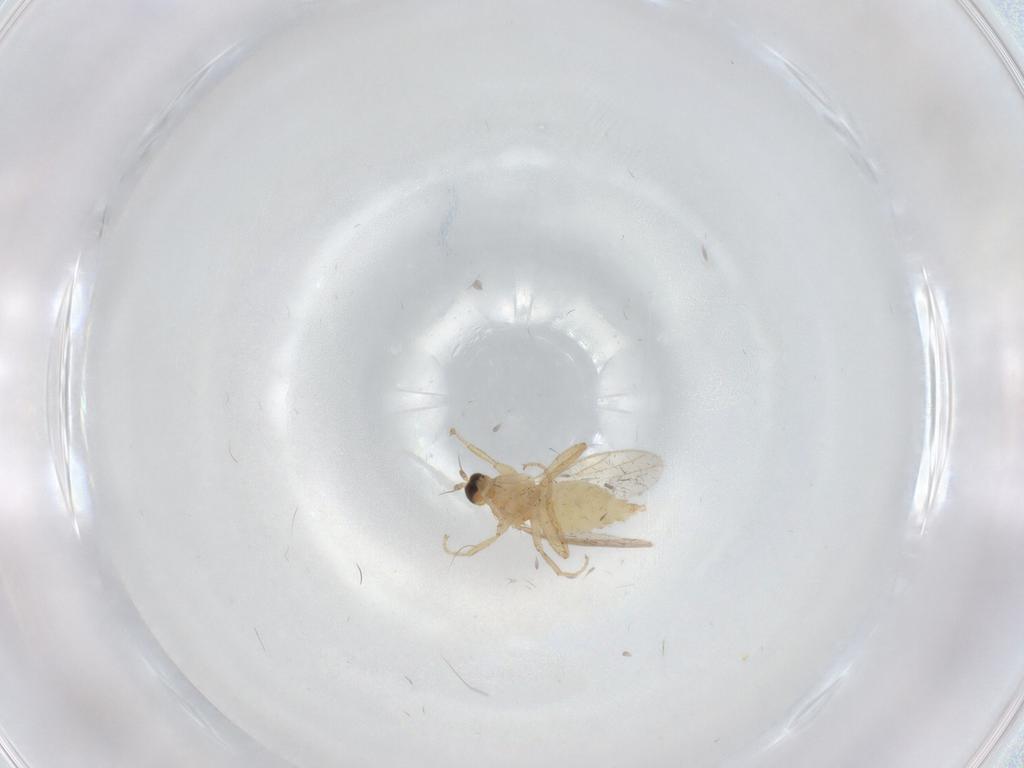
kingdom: Animalia
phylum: Arthropoda
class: Insecta
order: Diptera
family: Hybotidae
